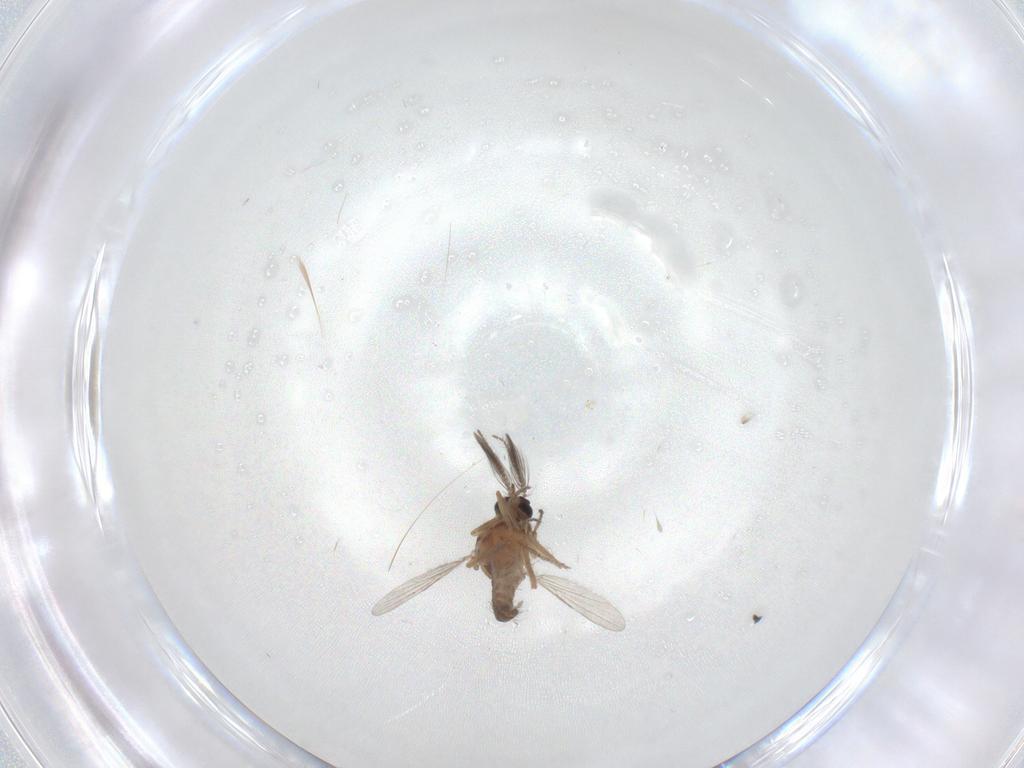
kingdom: Animalia
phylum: Arthropoda
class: Insecta
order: Diptera
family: Ceratopogonidae
